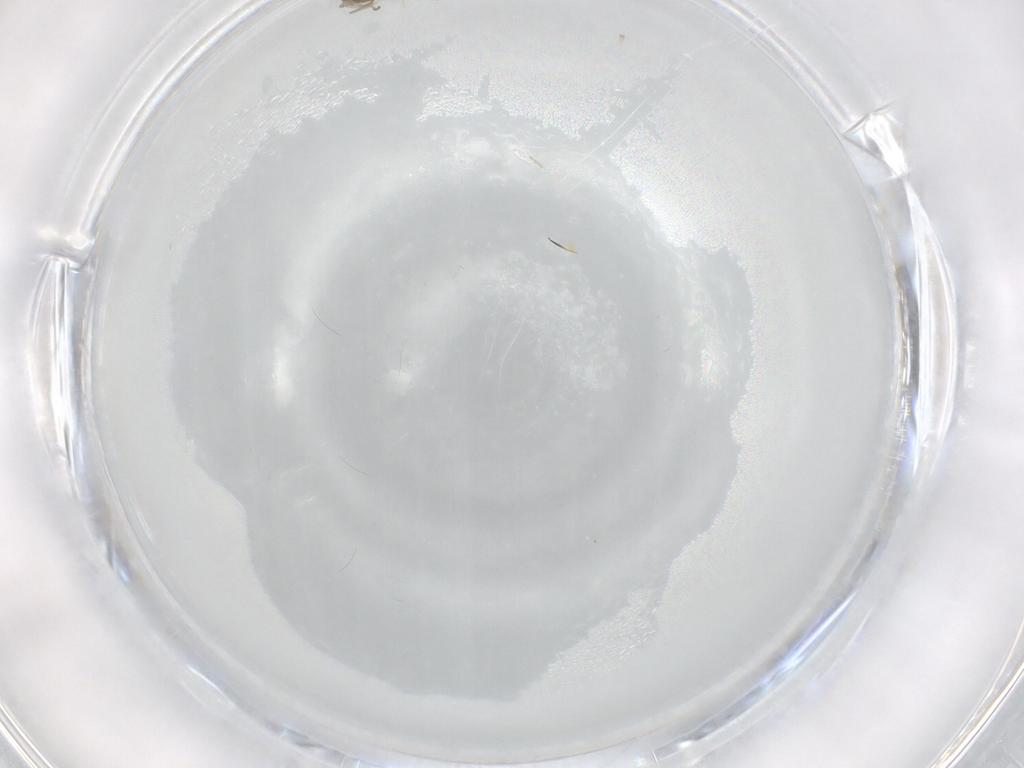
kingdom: Animalia
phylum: Arthropoda
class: Insecta
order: Diptera
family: Cecidomyiidae
